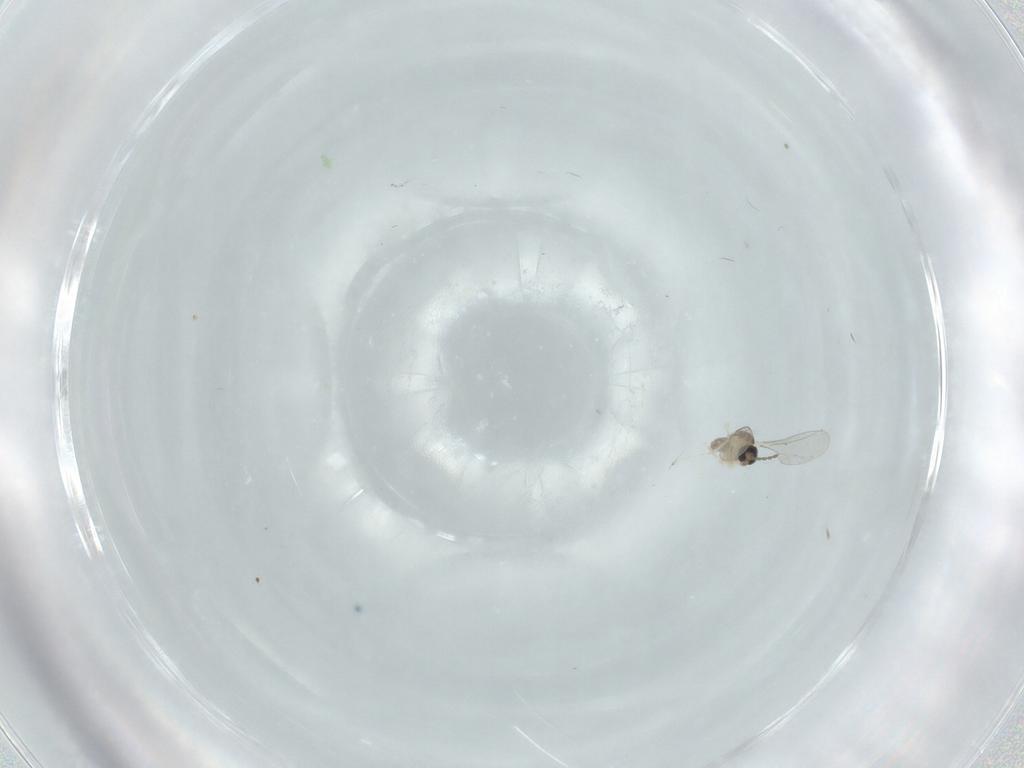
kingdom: Animalia
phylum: Arthropoda
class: Insecta
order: Diptera
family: Cecidomyiidae
